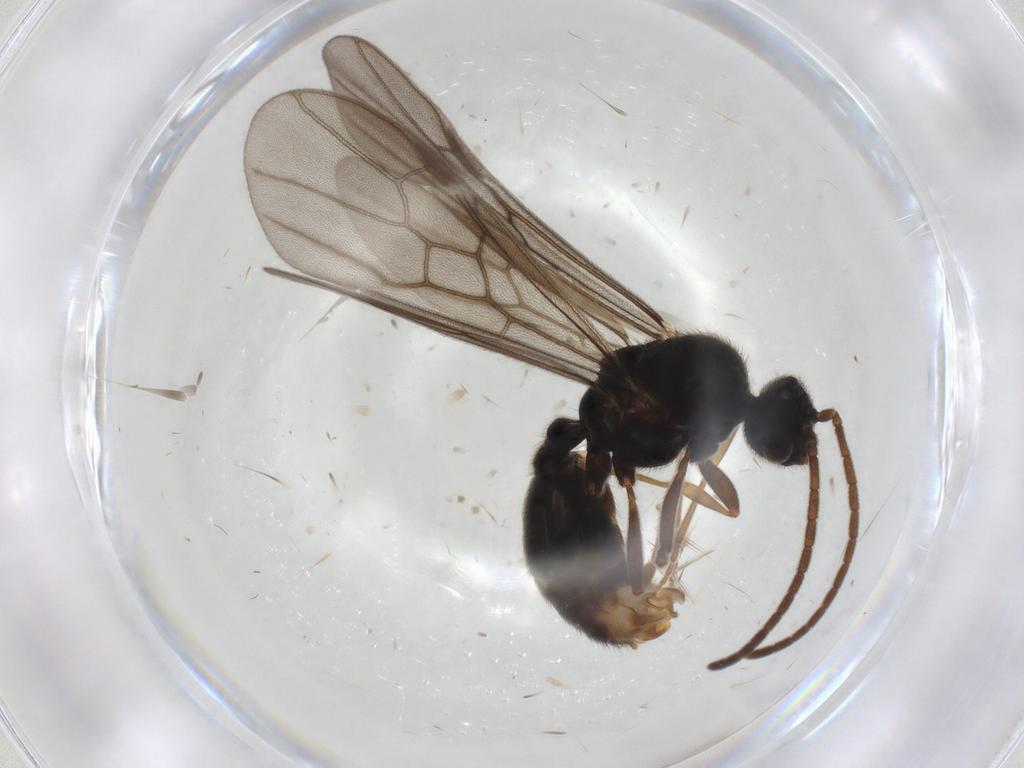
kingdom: Animalia
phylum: Arthropoda
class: Insecta
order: Hymenoptera
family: Formicidae
